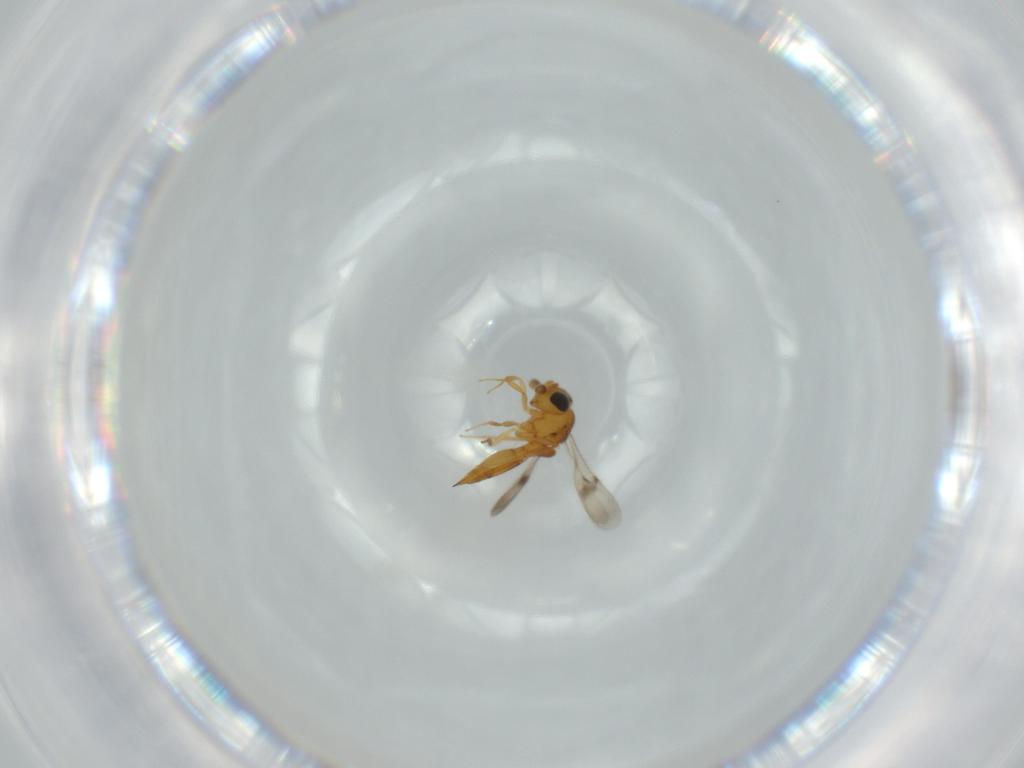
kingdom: Animalia
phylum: Arthropoda
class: Insecta
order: Hymenoptera
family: Scelionidae
